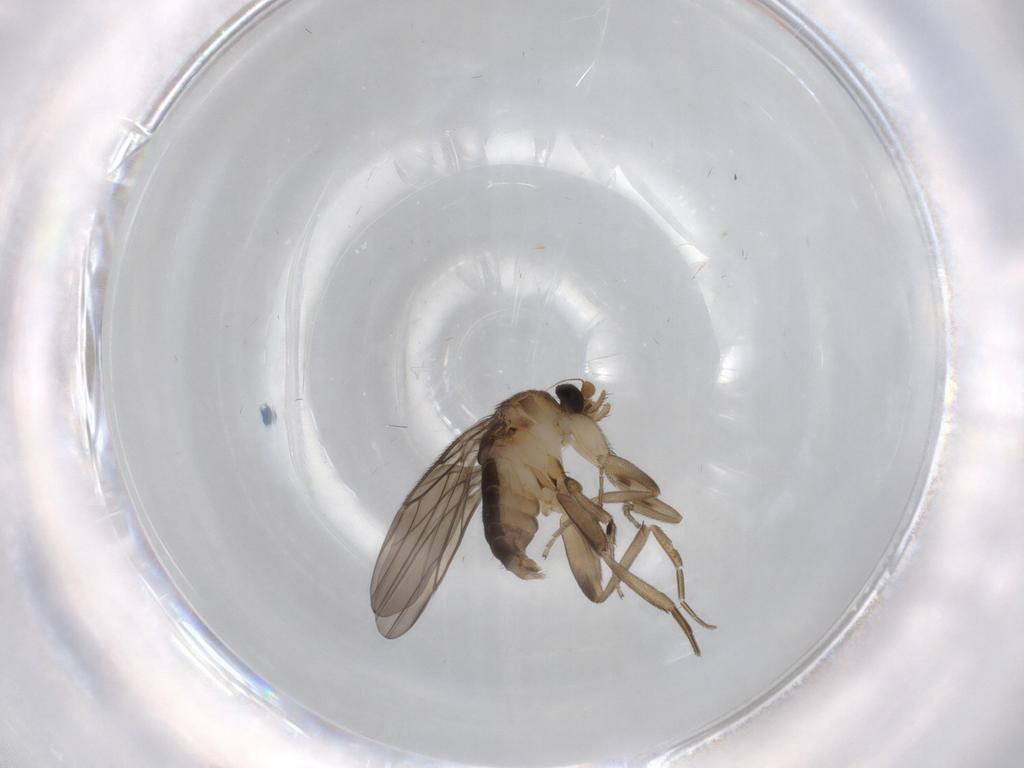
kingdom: Animalia
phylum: Arthropoda
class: Insecta
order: Diptera
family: Phoridae
